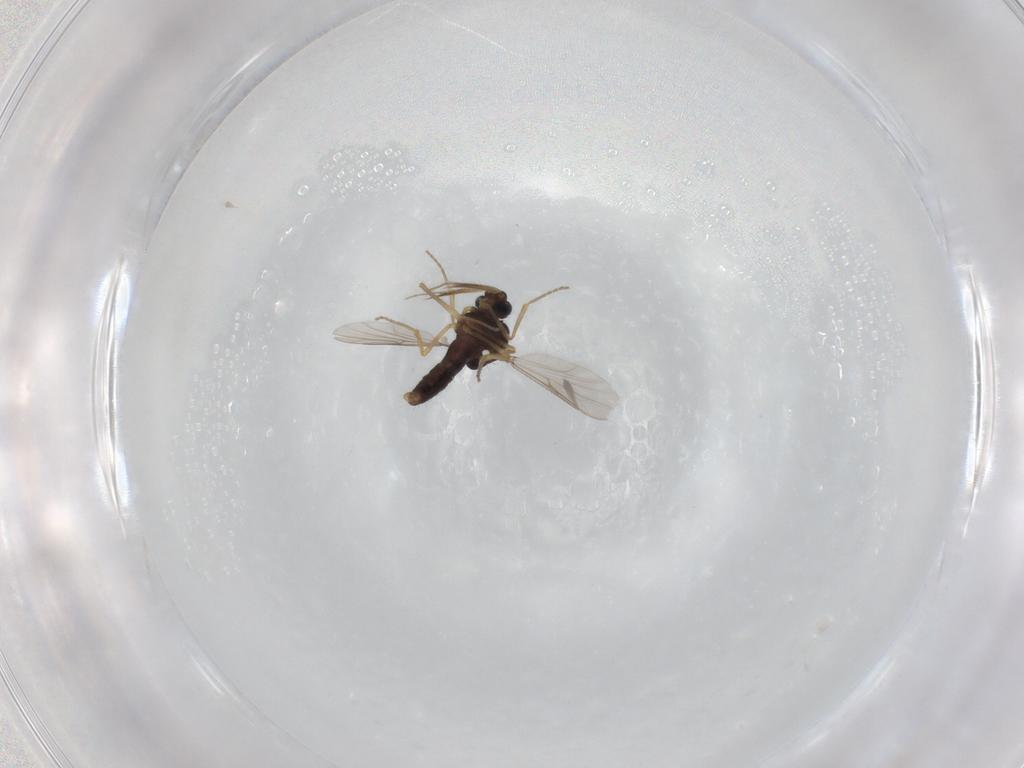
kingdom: Animalia
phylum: Arthropoda
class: Insecta
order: Diptera
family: Ceratopogonidae
